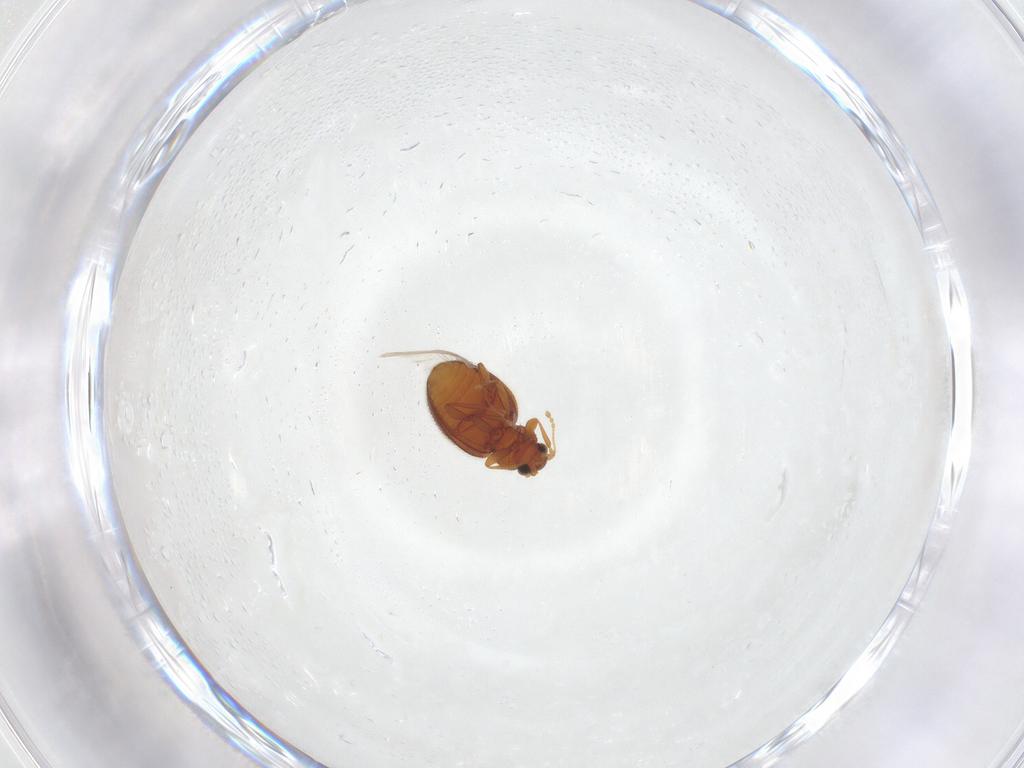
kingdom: Animalia
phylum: Arthropoda
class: Insecta
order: Coleoptera
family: Latridiidae
